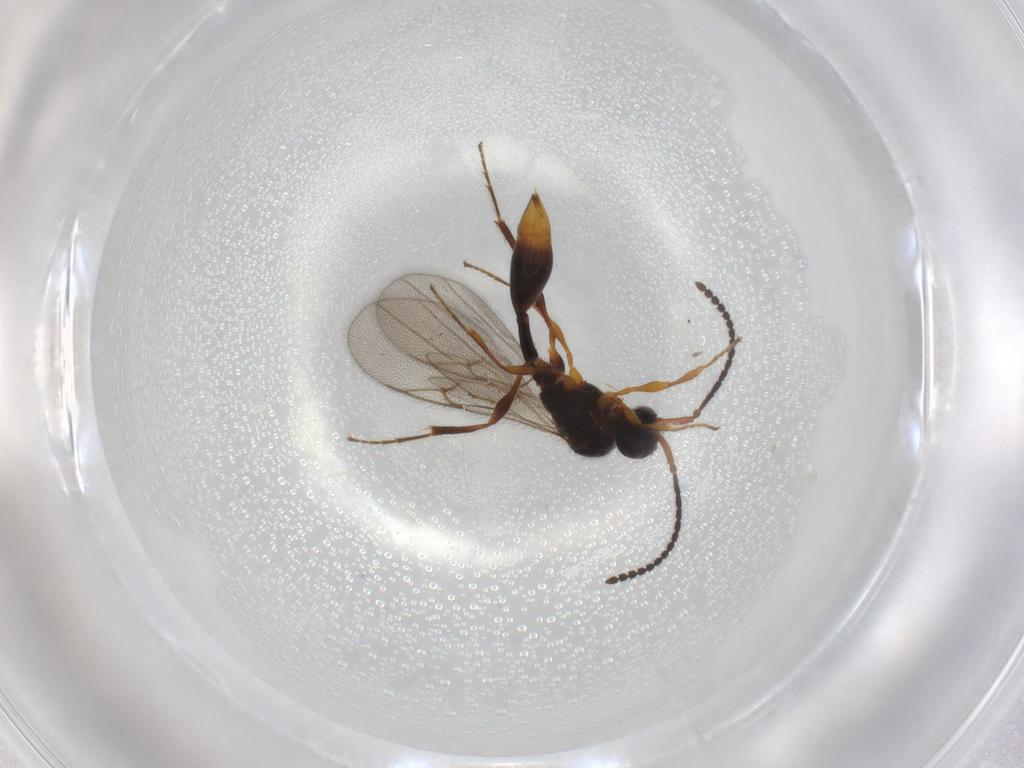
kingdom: Animalia
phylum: Arthropoda
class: Insecta
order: Hymenoptera
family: Diapriidae
